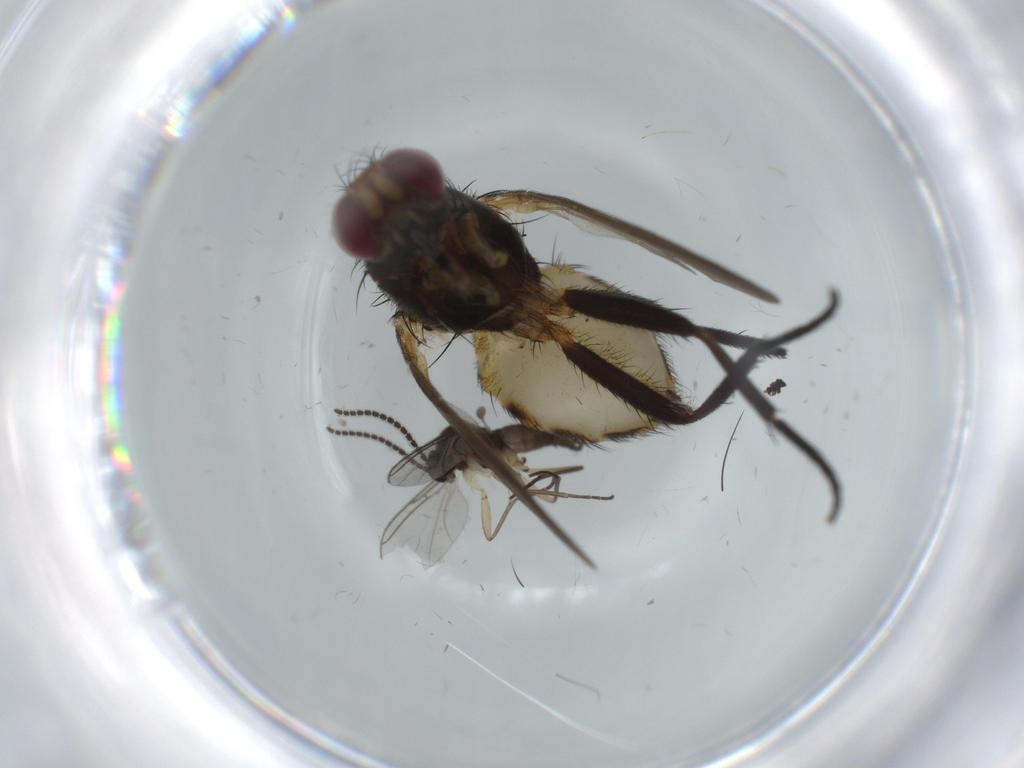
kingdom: Animalia
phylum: Arthropoda
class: Insecta
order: Diptera
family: Anthomyiidae
